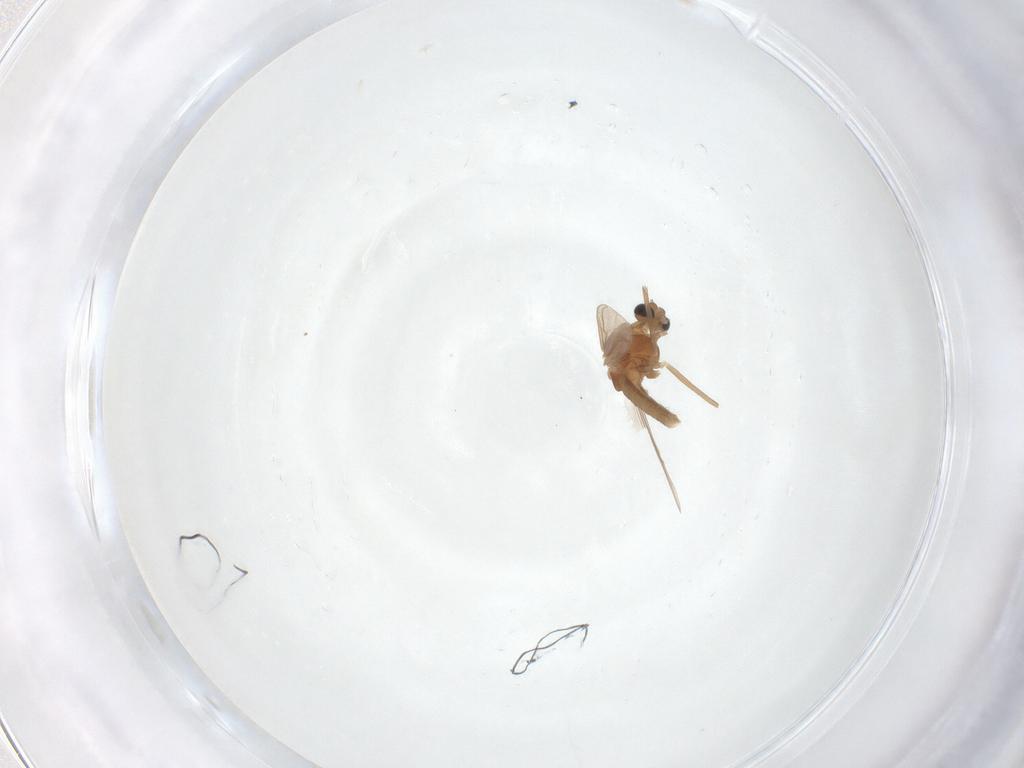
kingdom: Animalia
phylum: Arthropoda
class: Insecta
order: Diptera
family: Chironomidae
